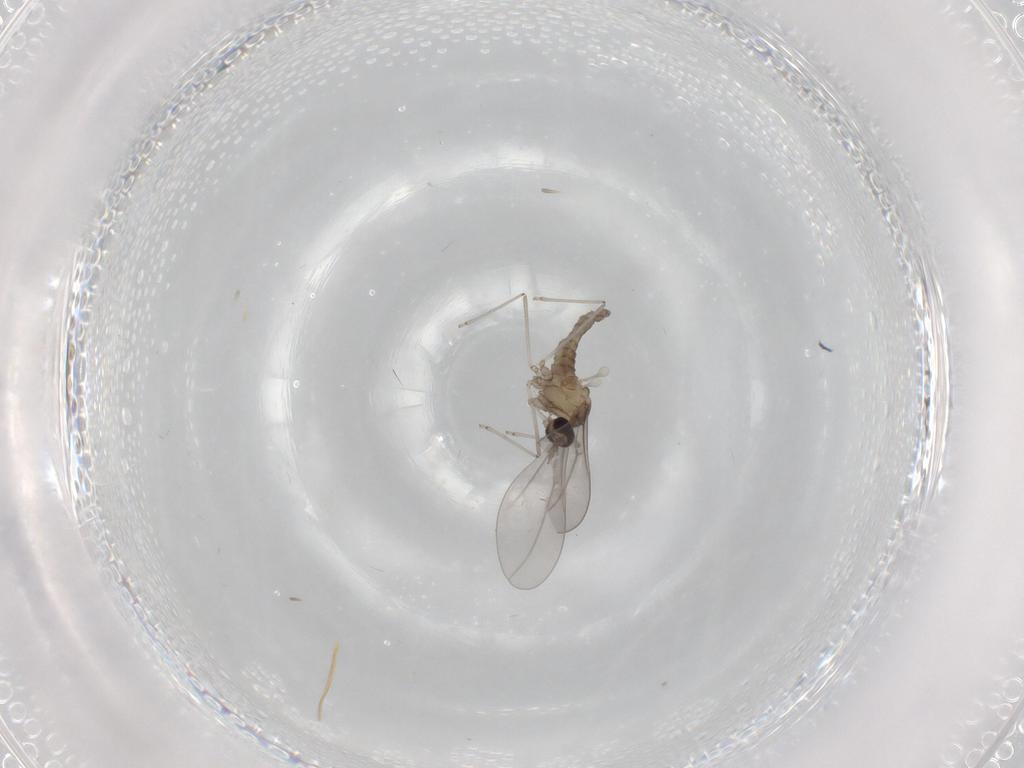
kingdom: Animalia
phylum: Arthropoda
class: Insecta
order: Diptera
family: Cecidomyiidae
